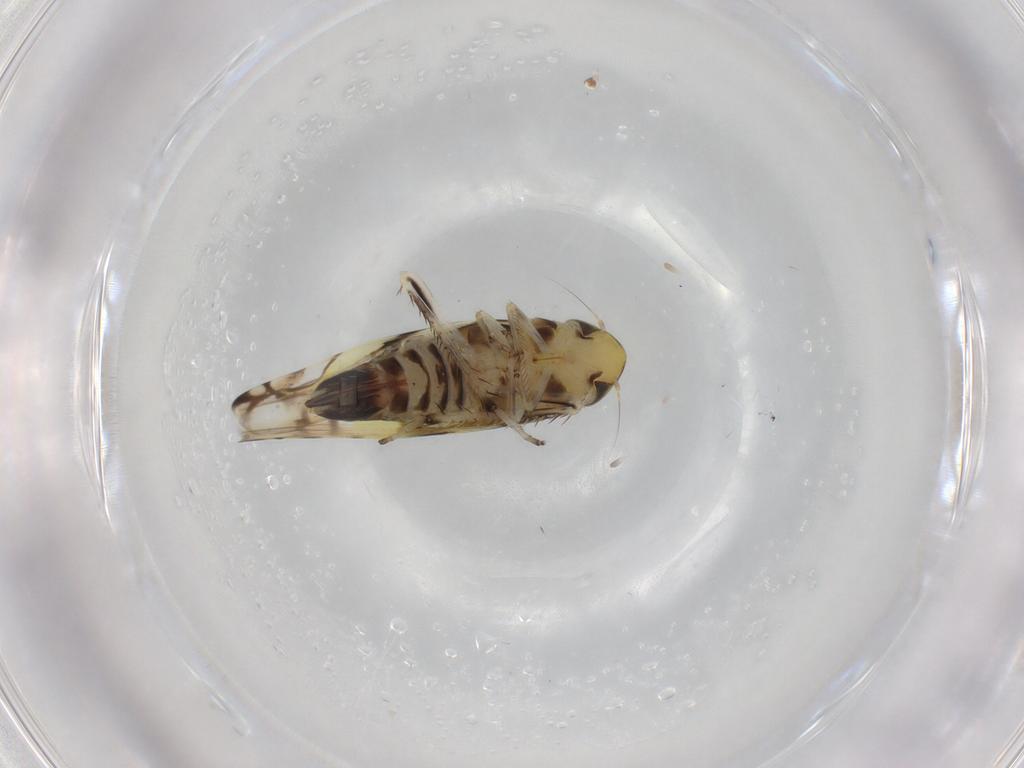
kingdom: Animalia
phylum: Arthropoda
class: Insecta
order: Hemiptera
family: Cicadellidae
